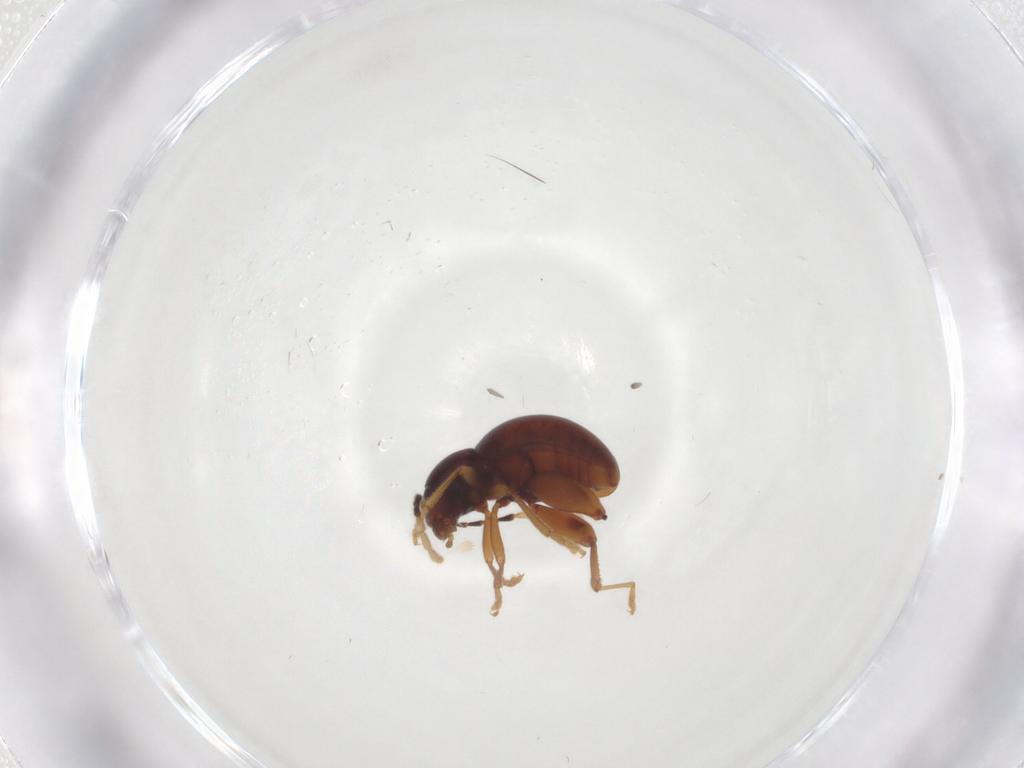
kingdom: Animalia
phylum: Arthropoda
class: Insecta
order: Coleoptera
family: Chrysomelidae
